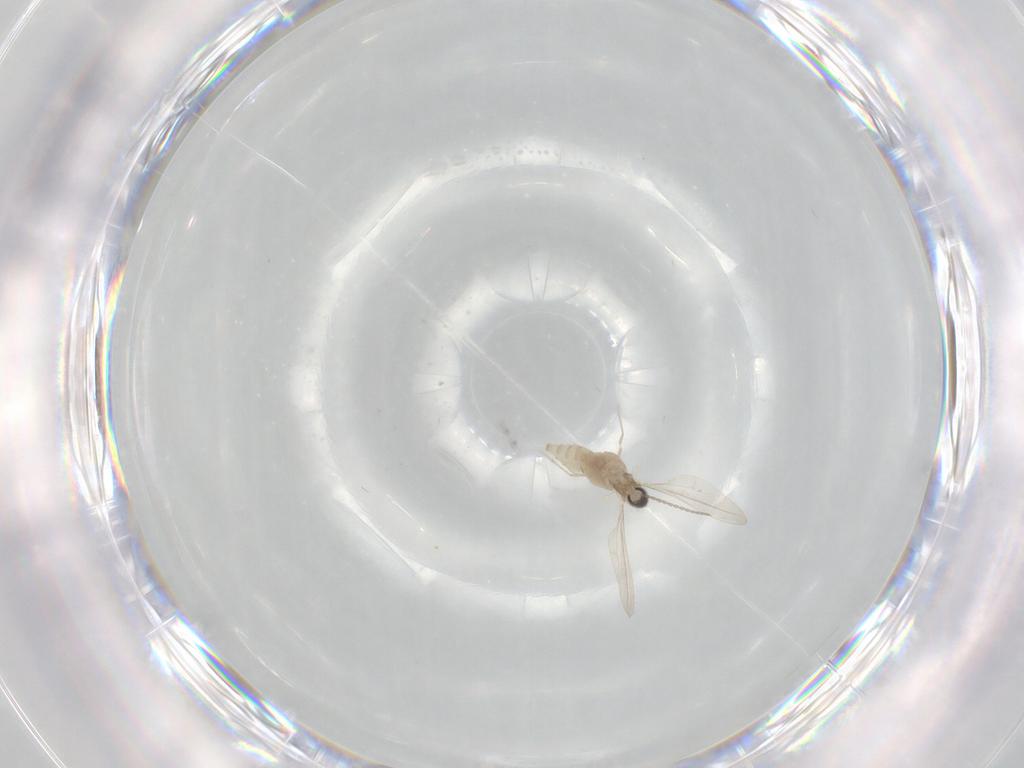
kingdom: Animalia
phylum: Arthropoda
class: Insecta
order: Diptera
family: Cecidomyiidae
